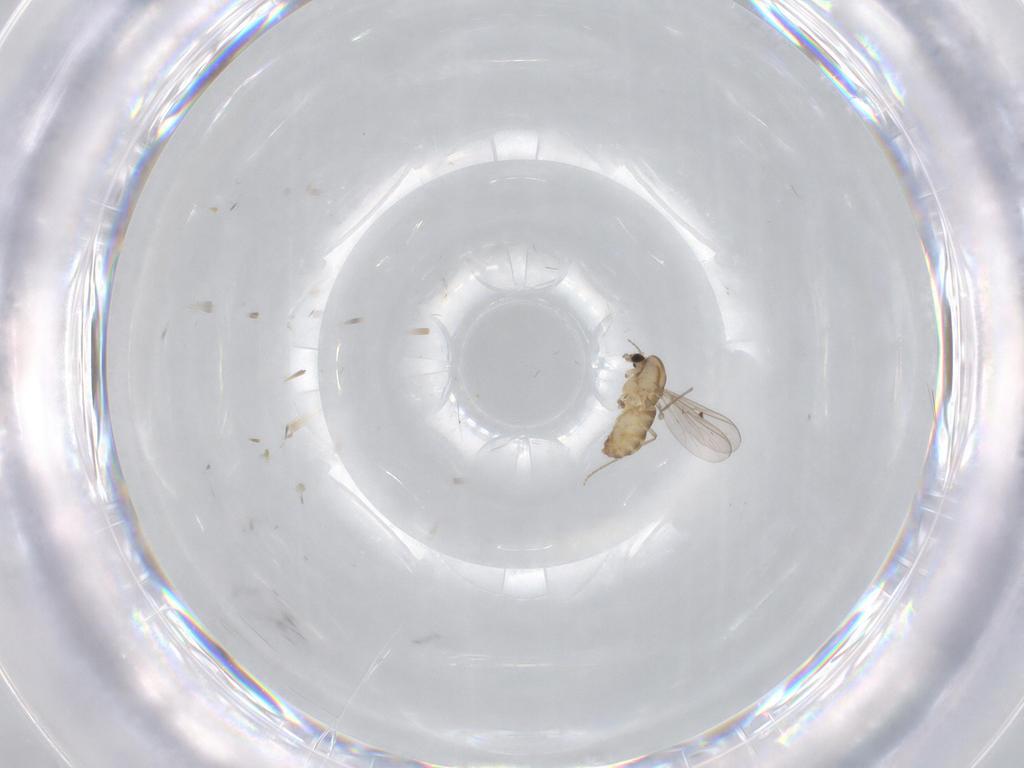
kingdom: Animalia
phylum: Arthropoda
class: Insecta
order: Diptera
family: Chironomidae
